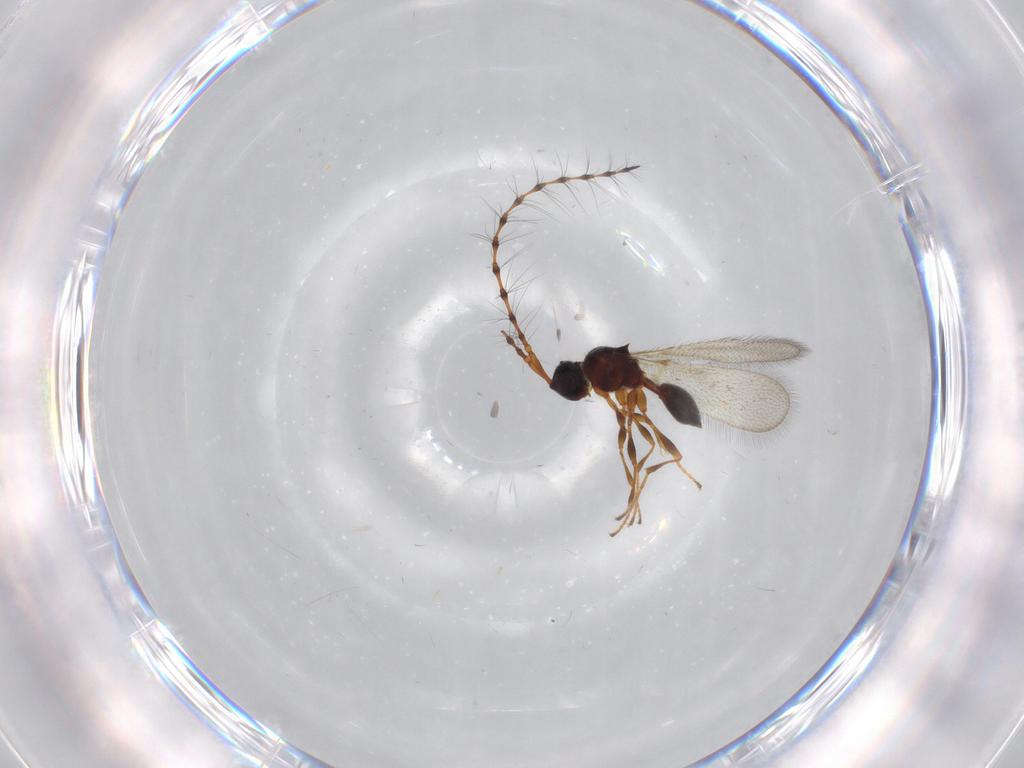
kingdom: Animalia
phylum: Arthropoda
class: Insecta
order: Hymenoptera
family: Diapriidae
